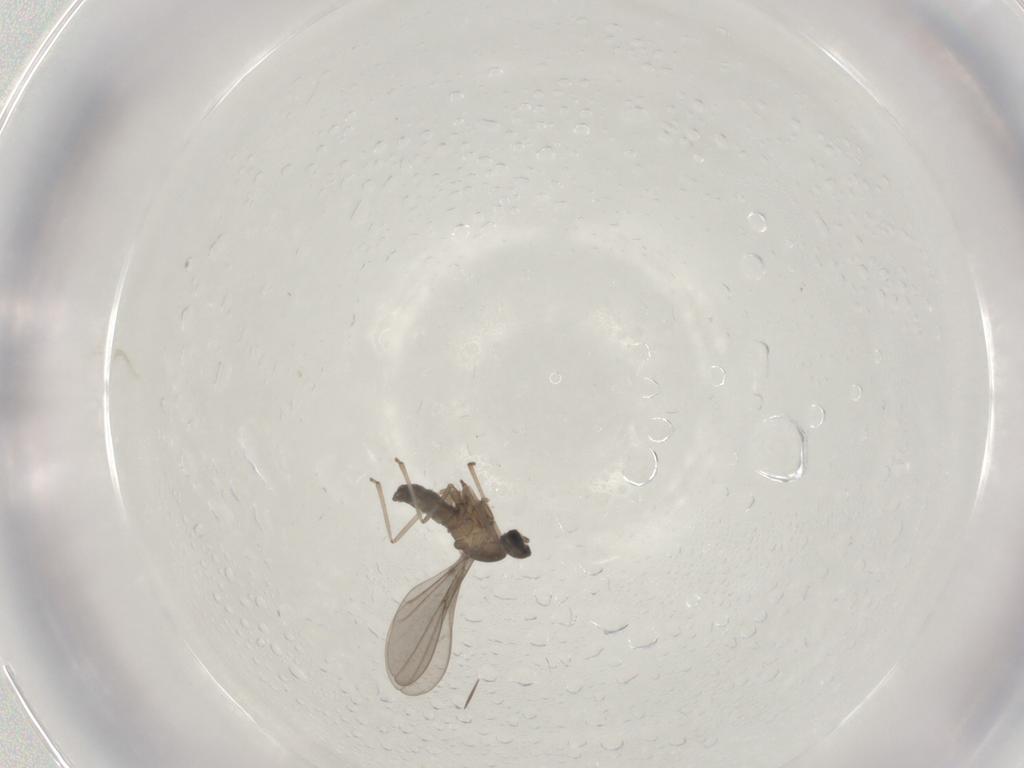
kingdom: Animalia
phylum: Arthropoda
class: Insecta
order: Diptera
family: Cecidomyiidae
